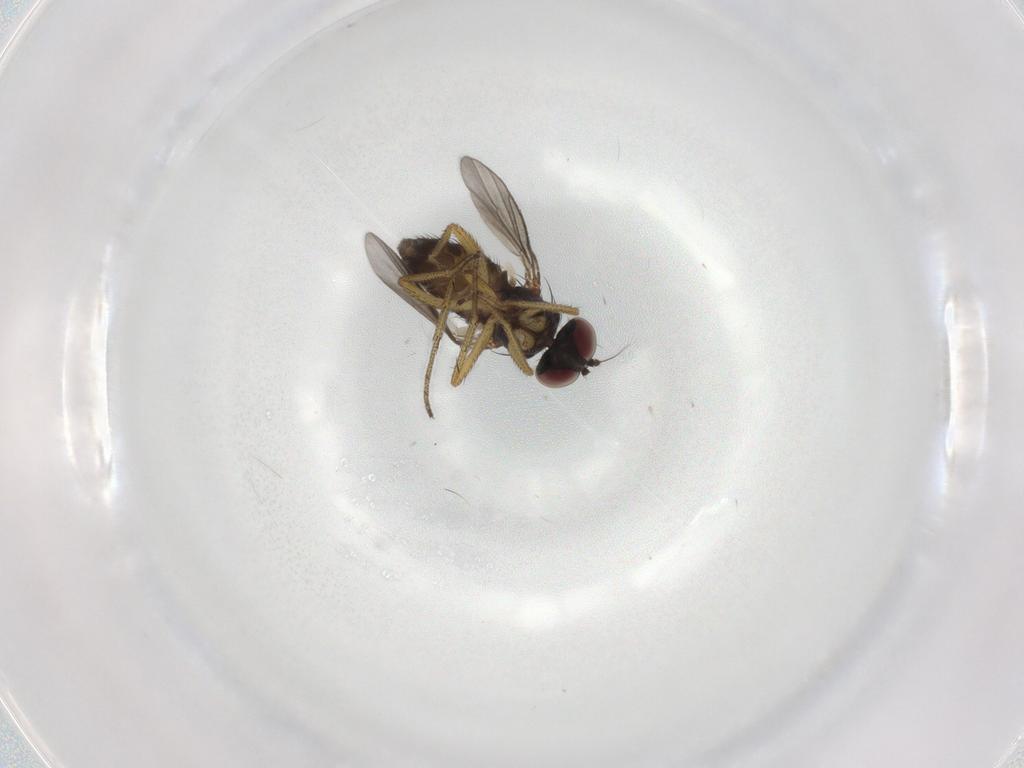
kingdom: Animalia
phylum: Arthropoda
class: Insecta
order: Diptera
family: Dolichopodidae
